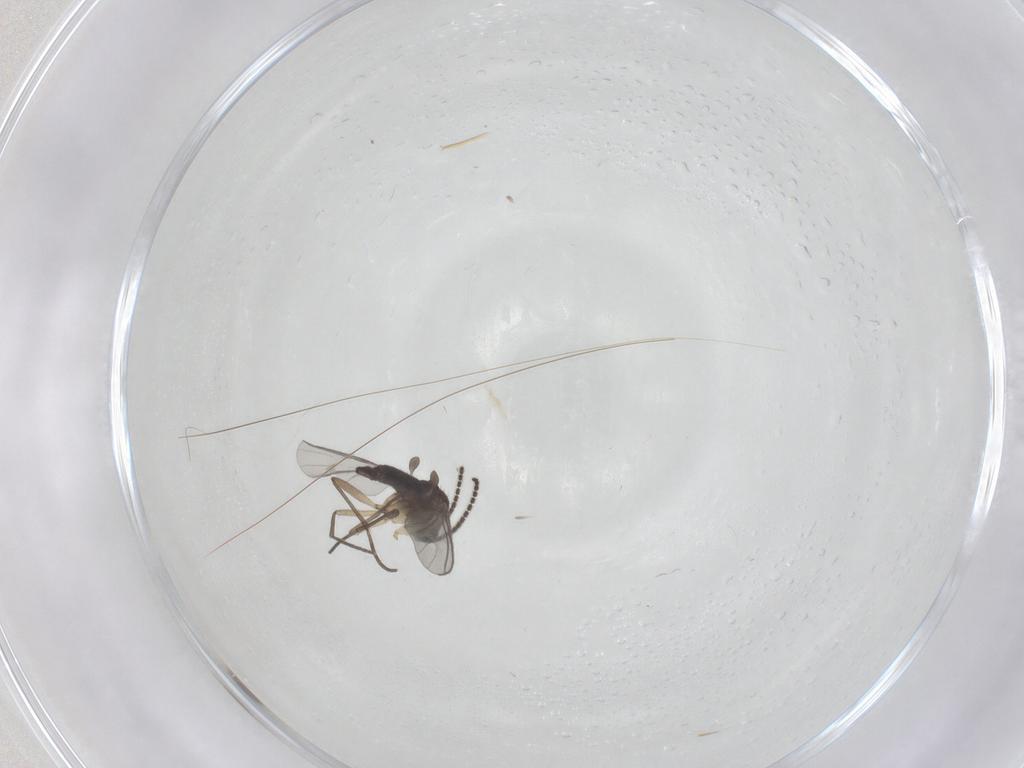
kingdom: Animalia
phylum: Arthropoda
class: Insecta
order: Diptera
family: Sciaridae
